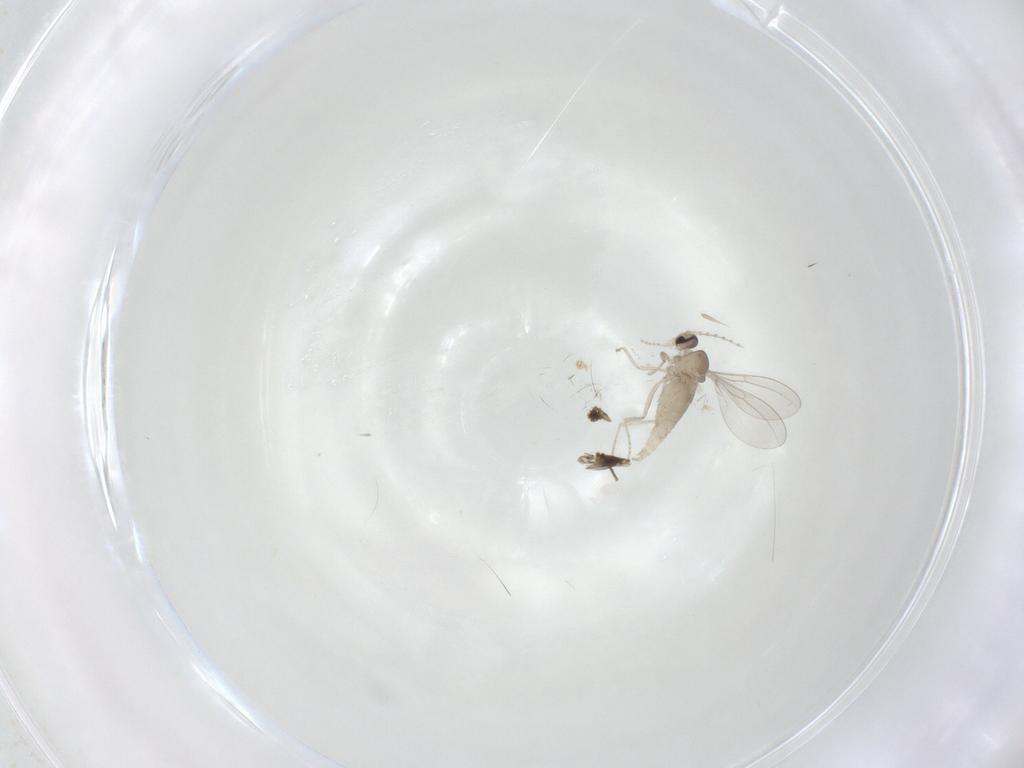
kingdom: Animalia
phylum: Arthropoda
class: Insecta
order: Diptera
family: Cecidomyiidae
